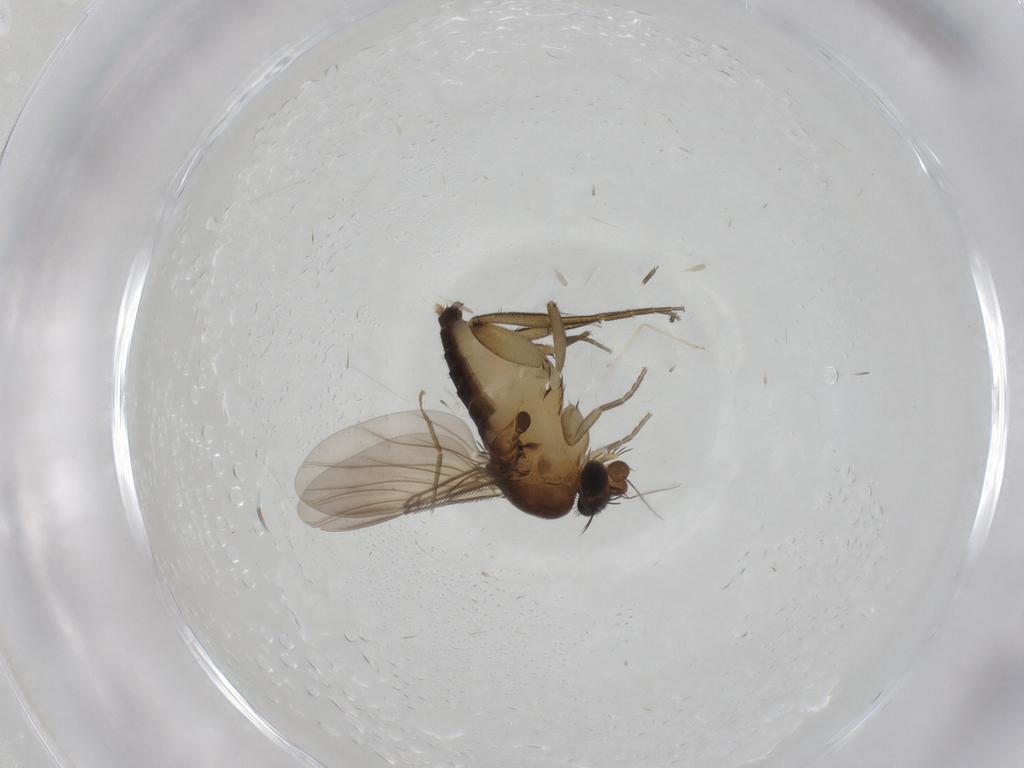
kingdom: Animalia
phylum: Arthropoda
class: Insecta
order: Diptera
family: Phoridae
